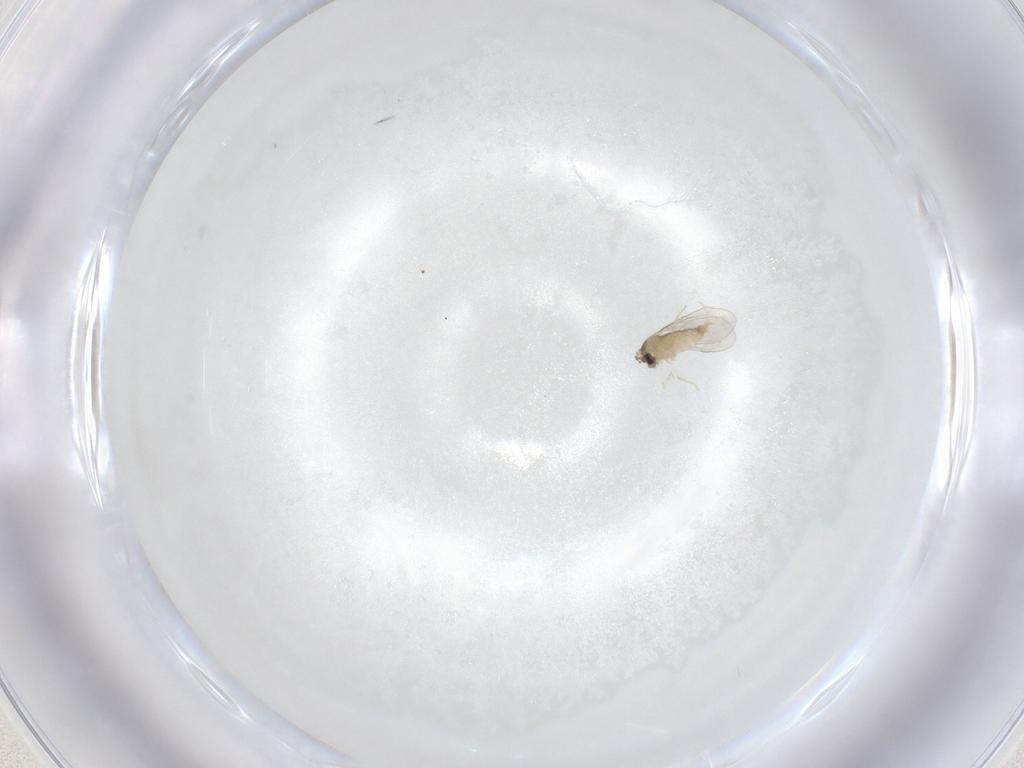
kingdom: Animalia
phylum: Arthropoda
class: Insecta
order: Diptera
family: Cecidomyiidae
